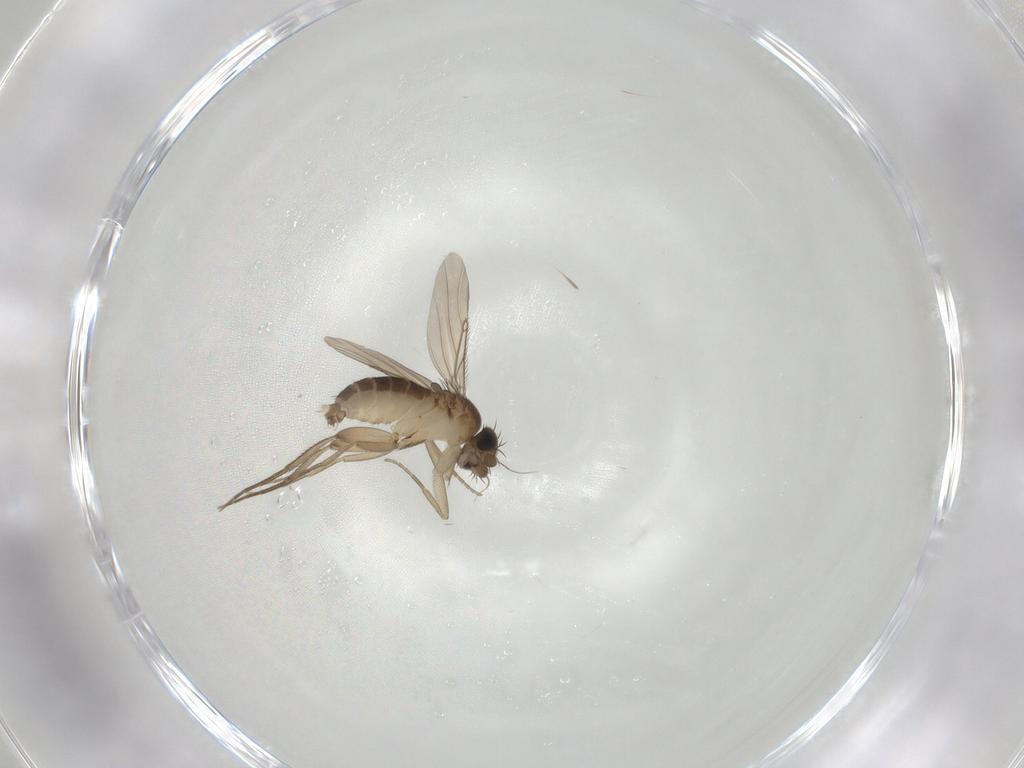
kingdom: Animalia
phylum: Arthropoda
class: Insecta
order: Diptera
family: Phoridae
